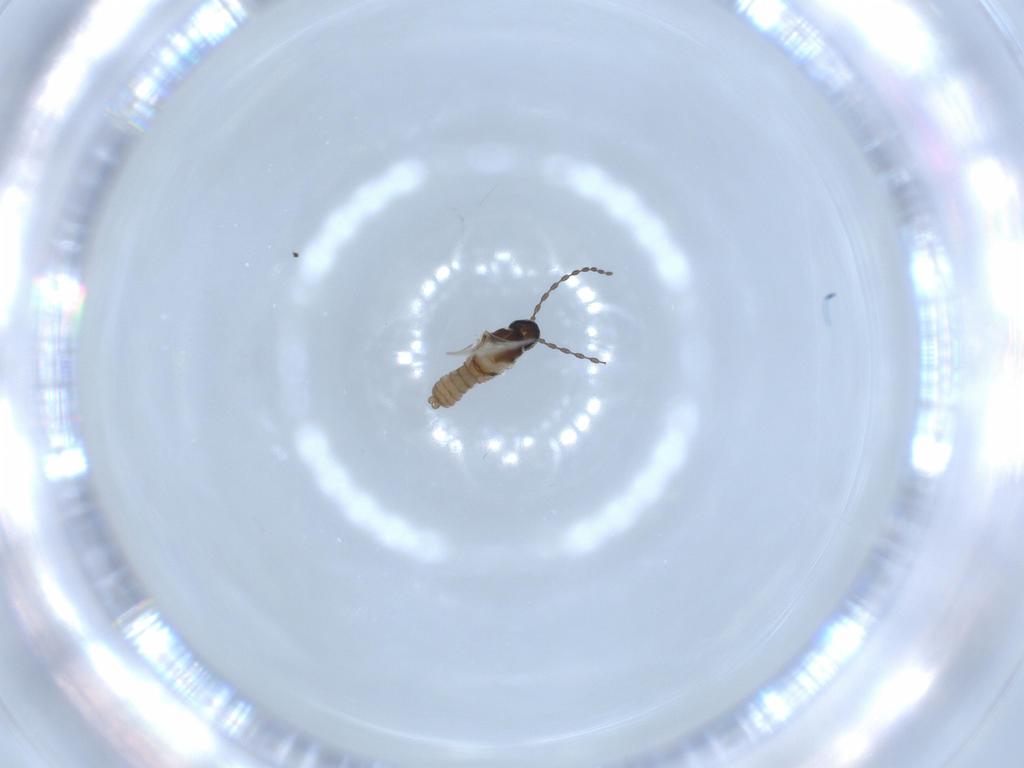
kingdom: Animalia
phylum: Arthropoda
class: Insecta
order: Diptera
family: Cecidomyiidae
